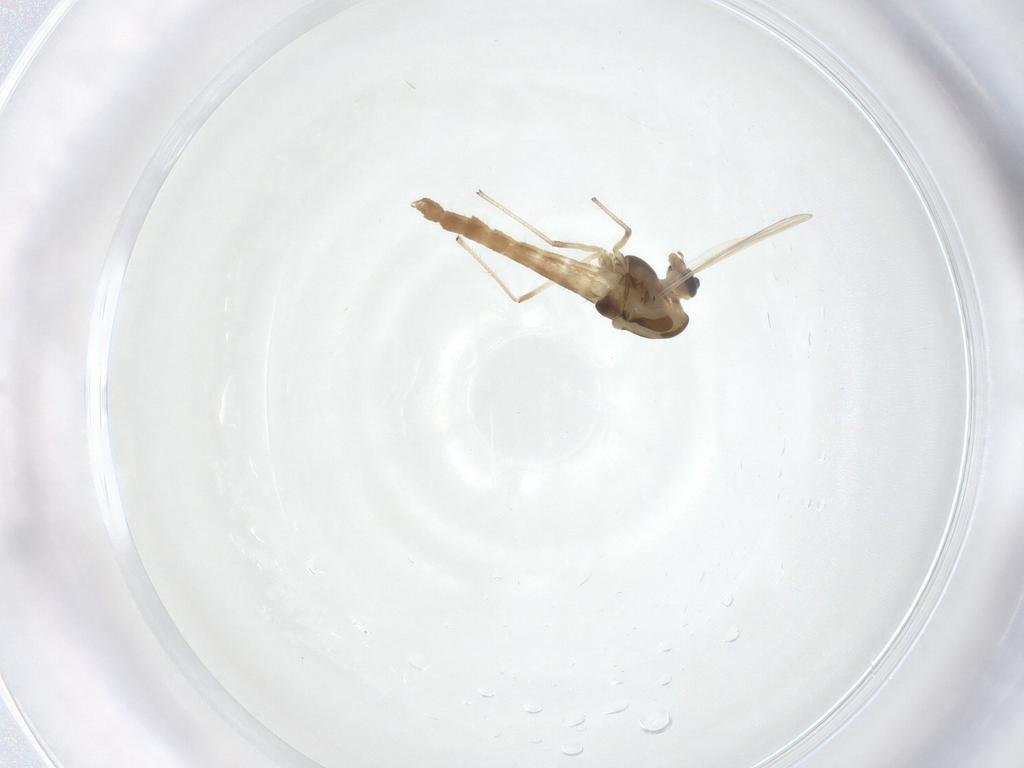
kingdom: Animalia
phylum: Arthropoda
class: Insecta
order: Diptera
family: Chironomidae
